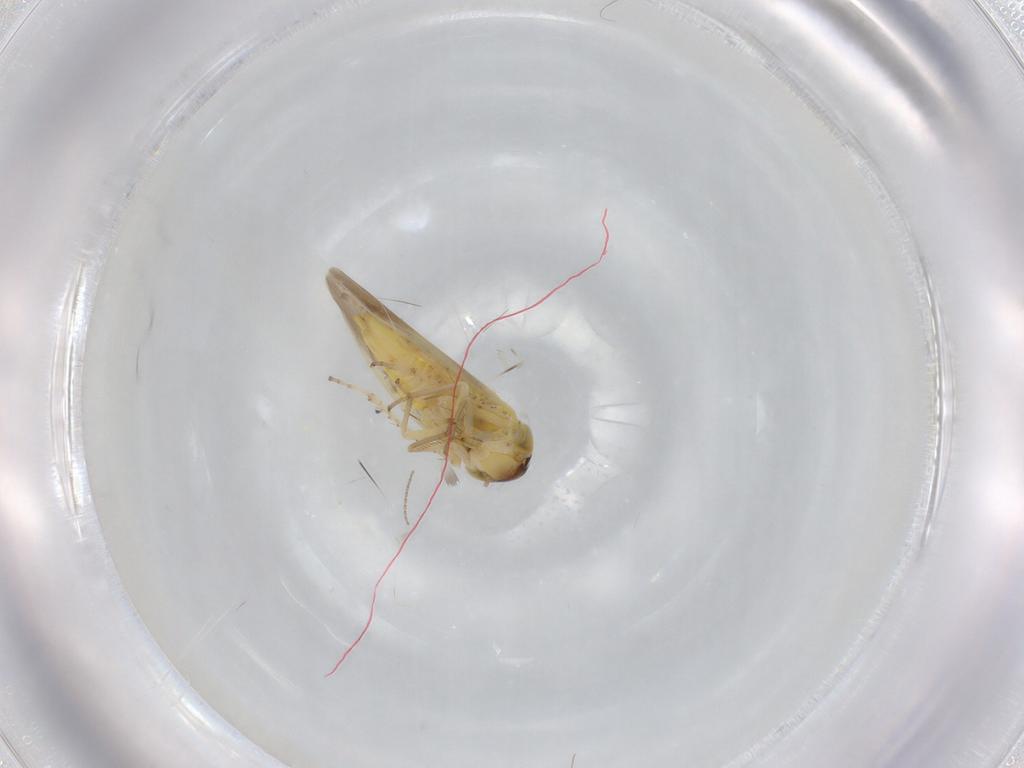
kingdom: Animalia
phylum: Arthropoda
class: Insecta
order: Hemiptera
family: Cicadellidae
